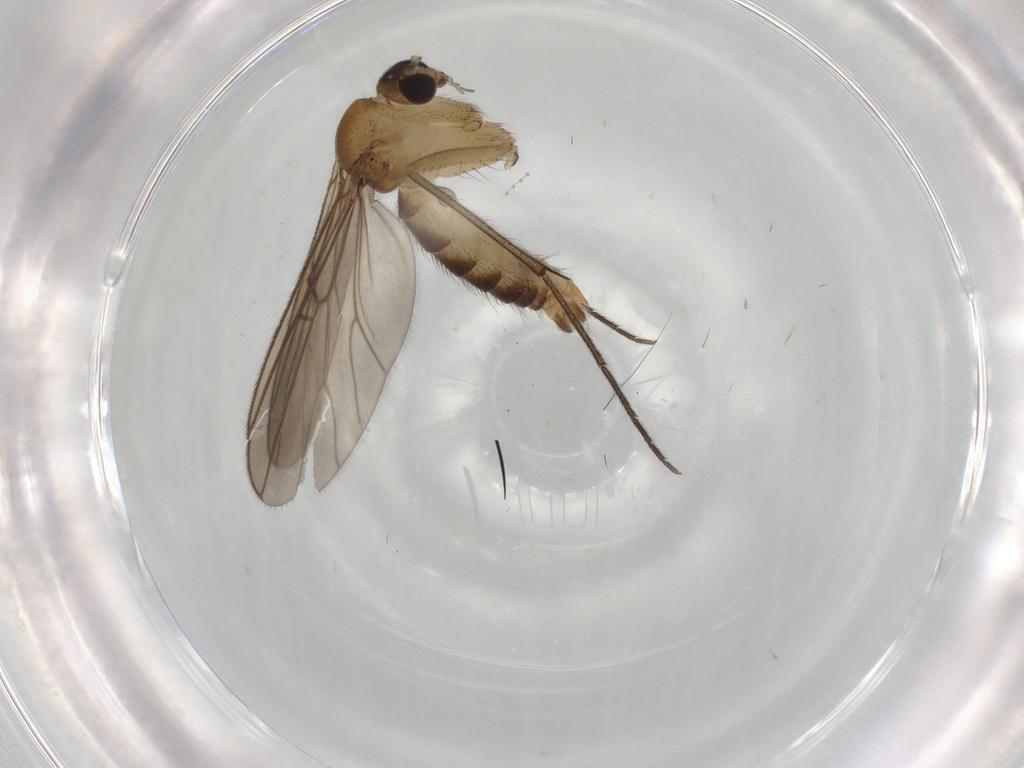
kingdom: Animalia
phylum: Arthropoda
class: Insecta
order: Diptera
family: Dolichopodidae
